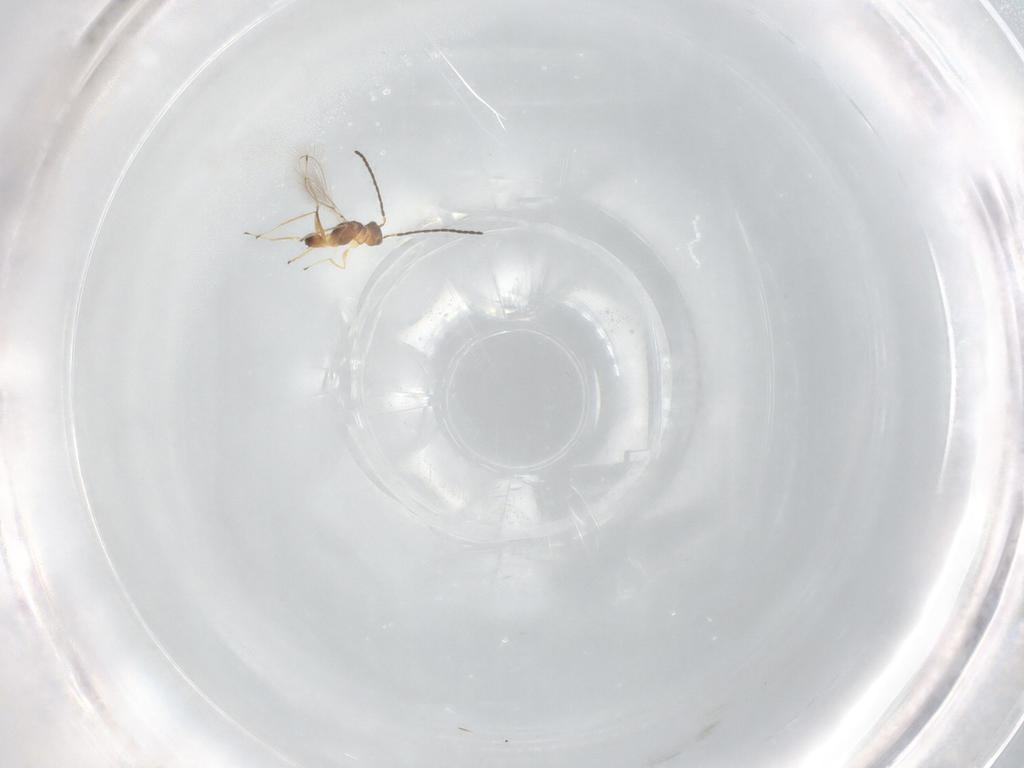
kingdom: Animalia
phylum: Arthropoda
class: Insecta
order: Hymenoptera
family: Mymaridae
